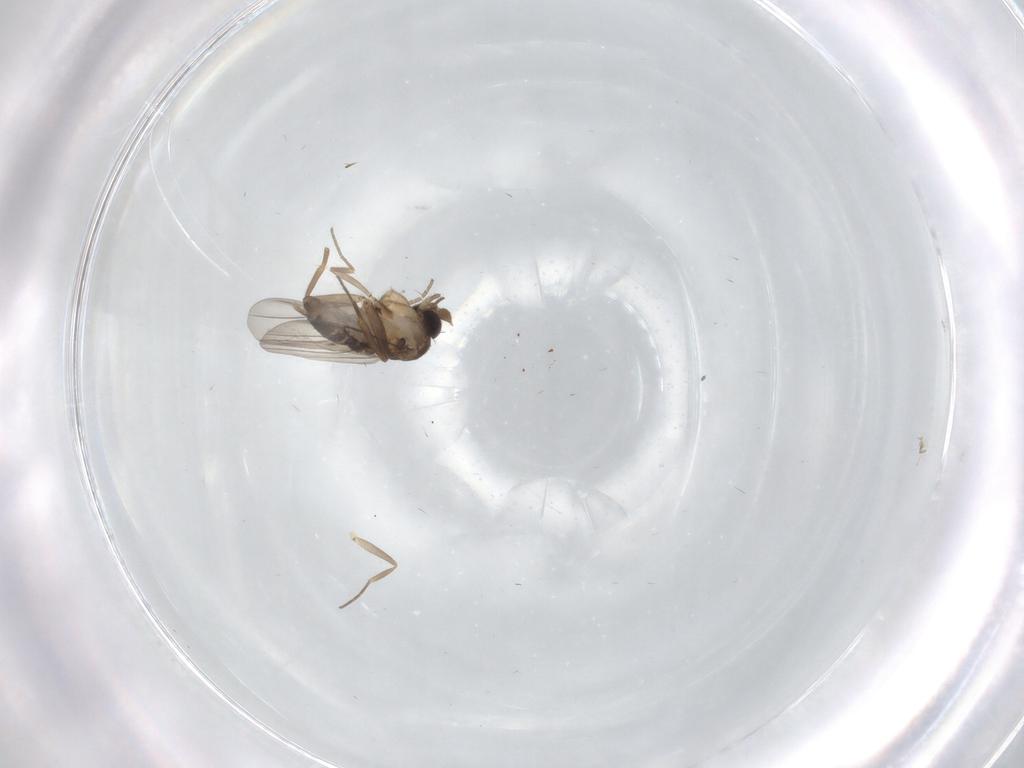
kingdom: Animalia
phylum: Arthropoda
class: Insecta
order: Diptera
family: Phoridae
